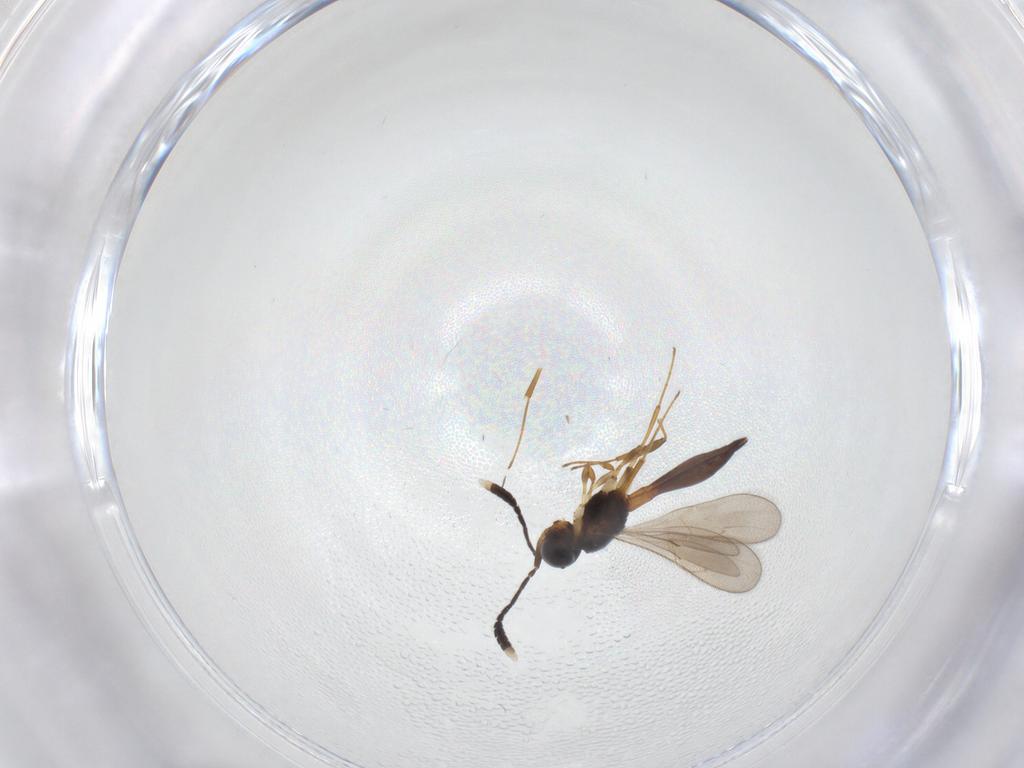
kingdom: Animalia
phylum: Arthropoda
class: Insecta
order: Hymenoptera
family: Scelionidae
